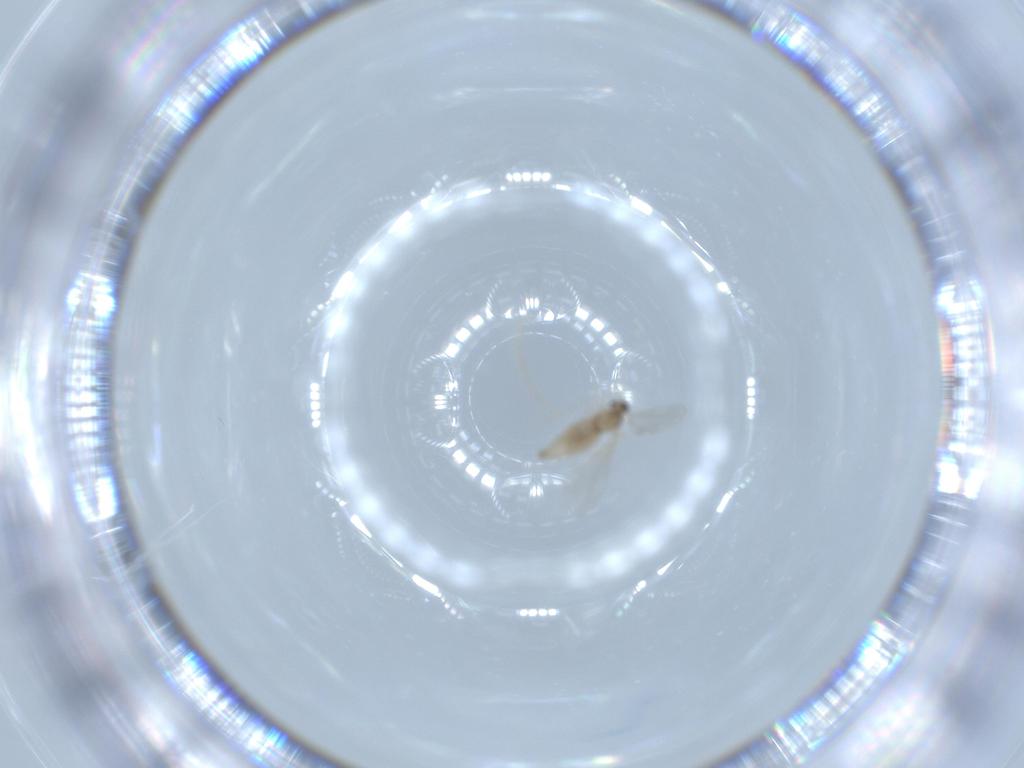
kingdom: Animalia
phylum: Arthropoda
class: Insecta
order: Diptera
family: Cecidomyiidae
